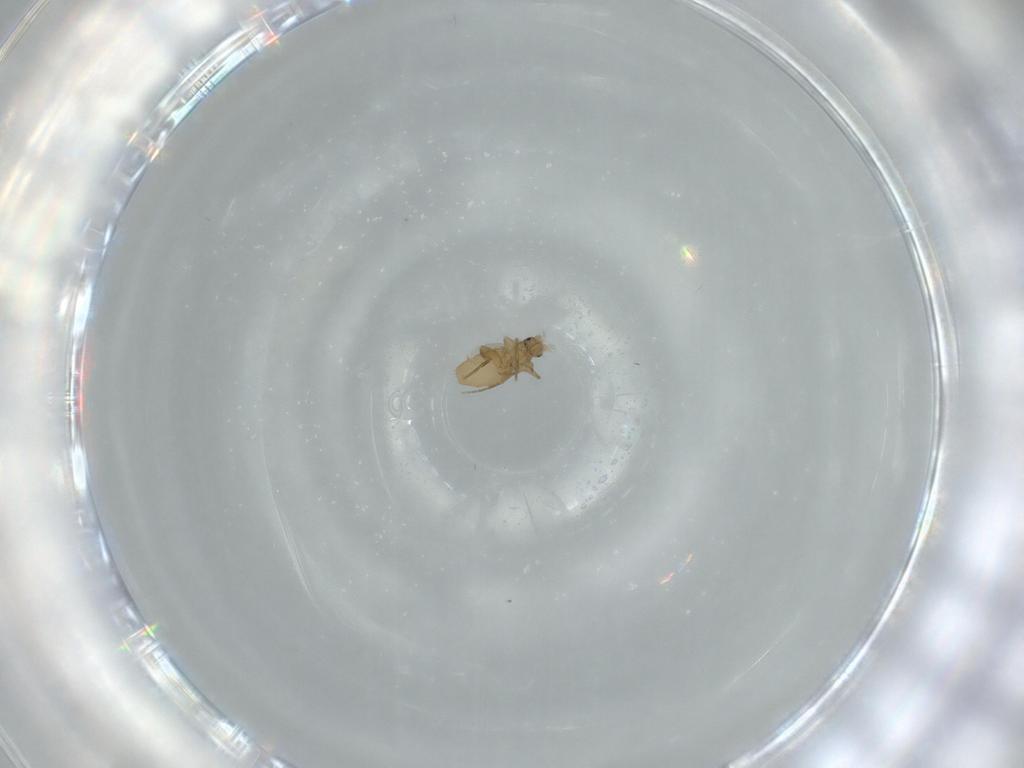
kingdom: Animalia
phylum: Arthropoda
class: Insecta
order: Diptera
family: Phoridae
